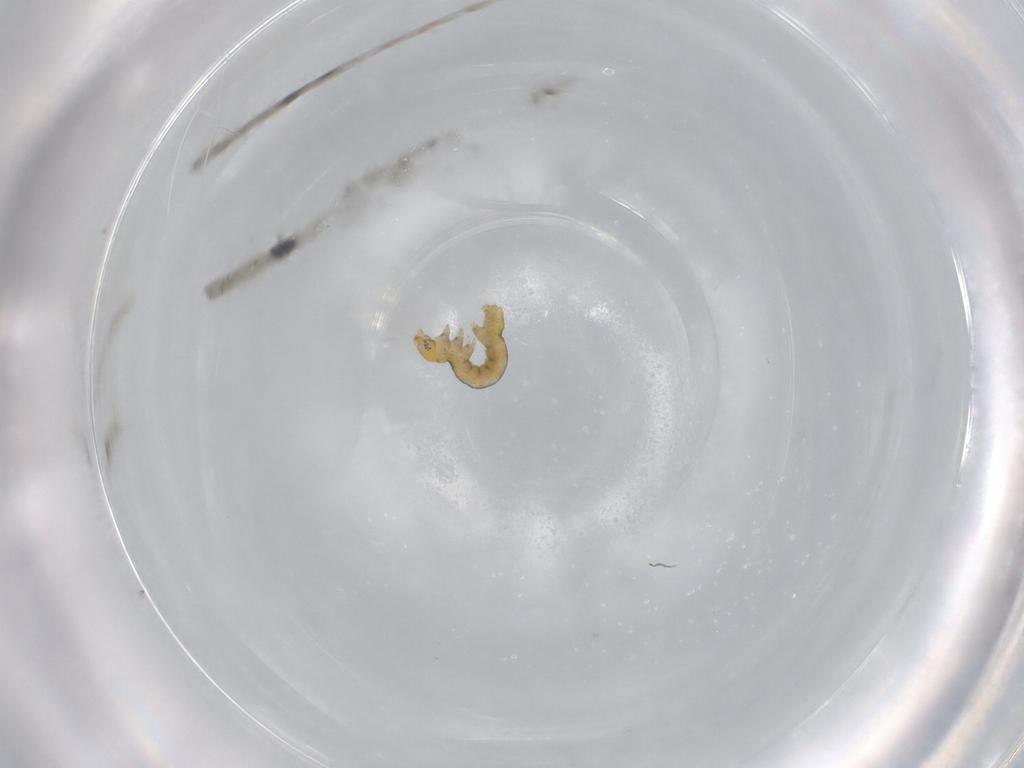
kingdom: Animalia
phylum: Arthropoda
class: Insecta
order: Lepidoptera
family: Geometridae
